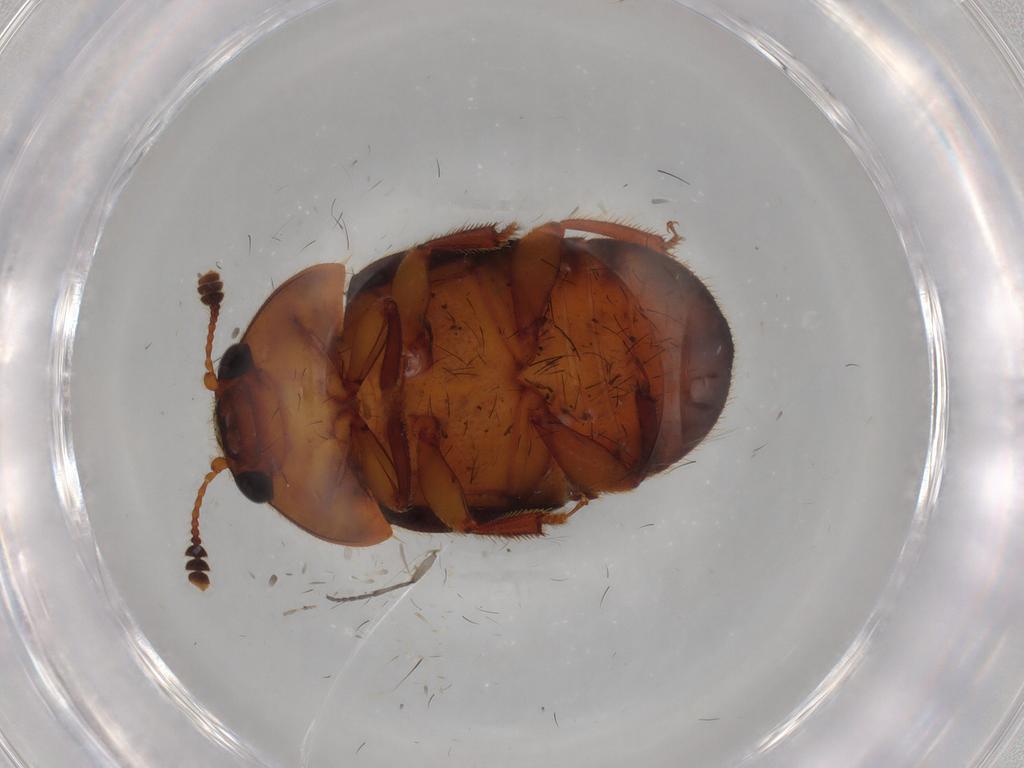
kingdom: Animalia
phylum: Arthropoda
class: Insecta
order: Coleoptera
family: Nitidulidae
